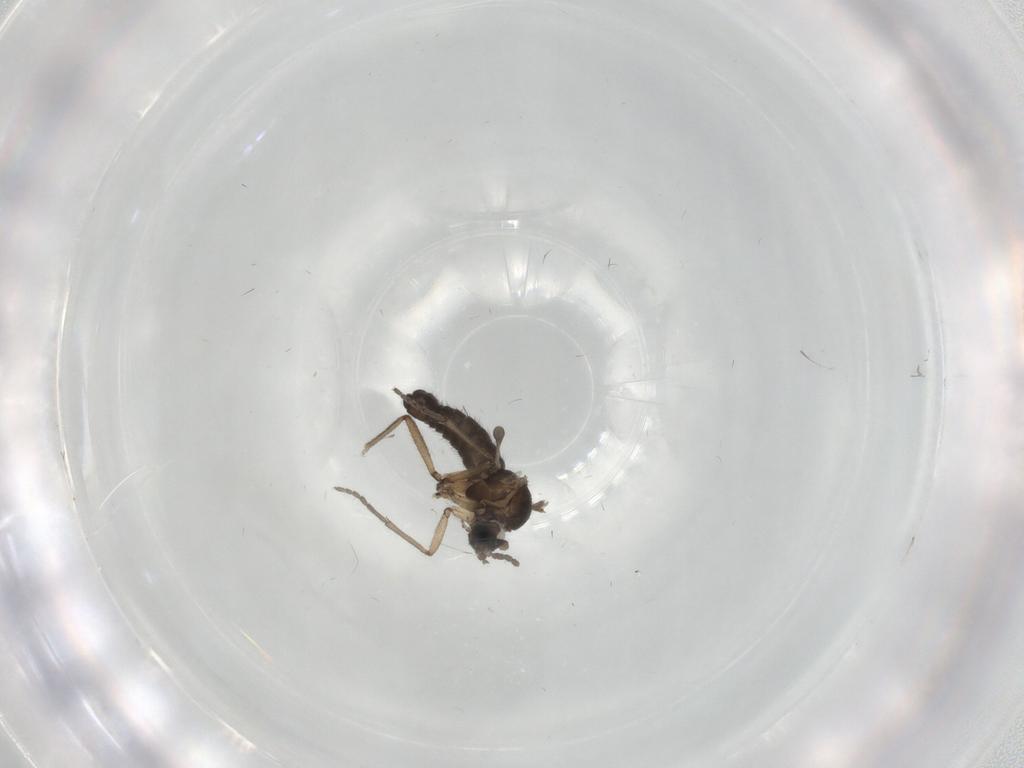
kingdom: Animalia
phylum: Arthropoda
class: Insecta
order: Diptera
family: Sciaridae
